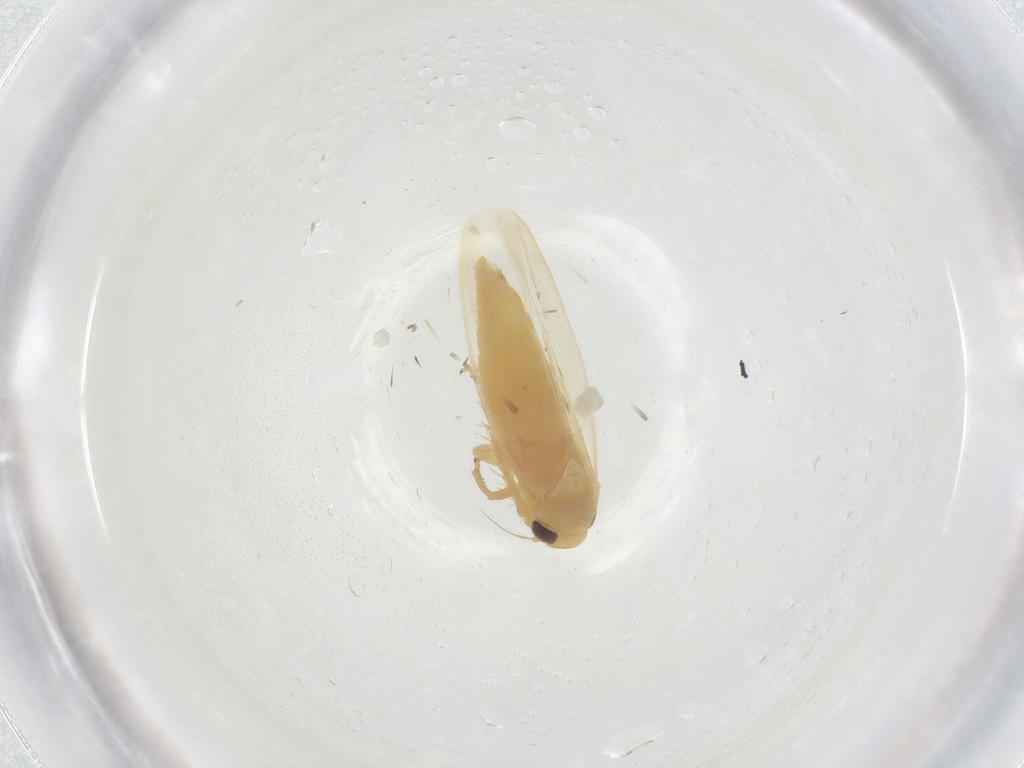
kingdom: Animalia
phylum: Arthropoda
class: Insecta
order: Hemiptera
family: Cicadellidae
